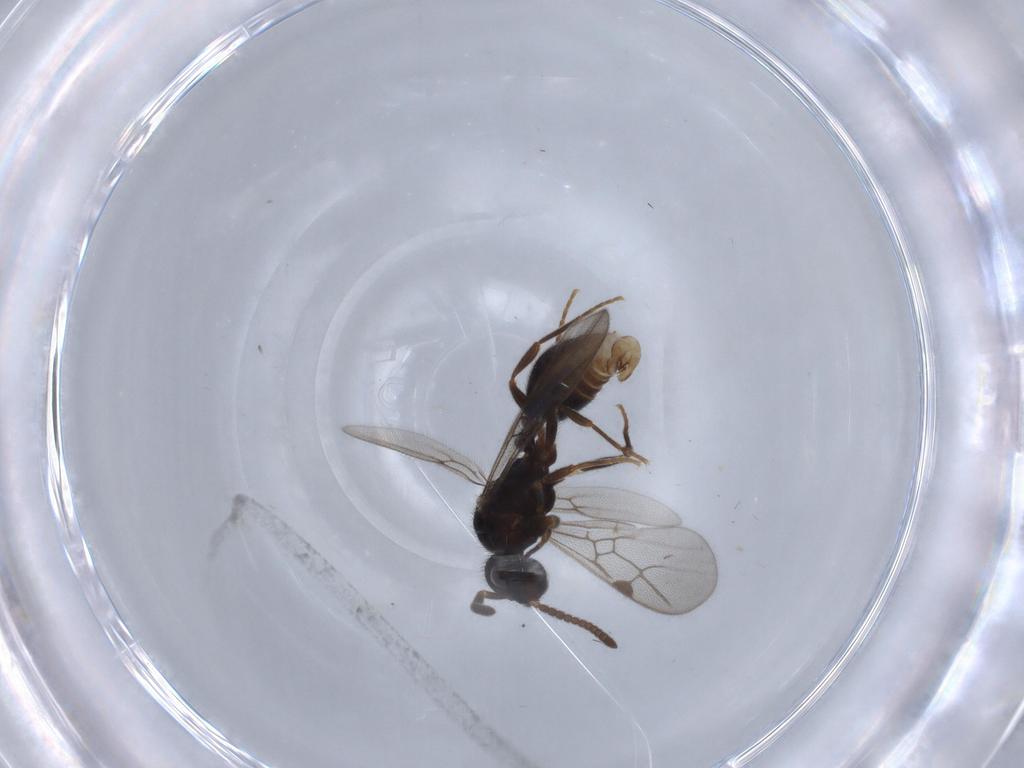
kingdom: Animalia
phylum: Arthropoda
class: Insecta
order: Hymenoptera
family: Formicidae
